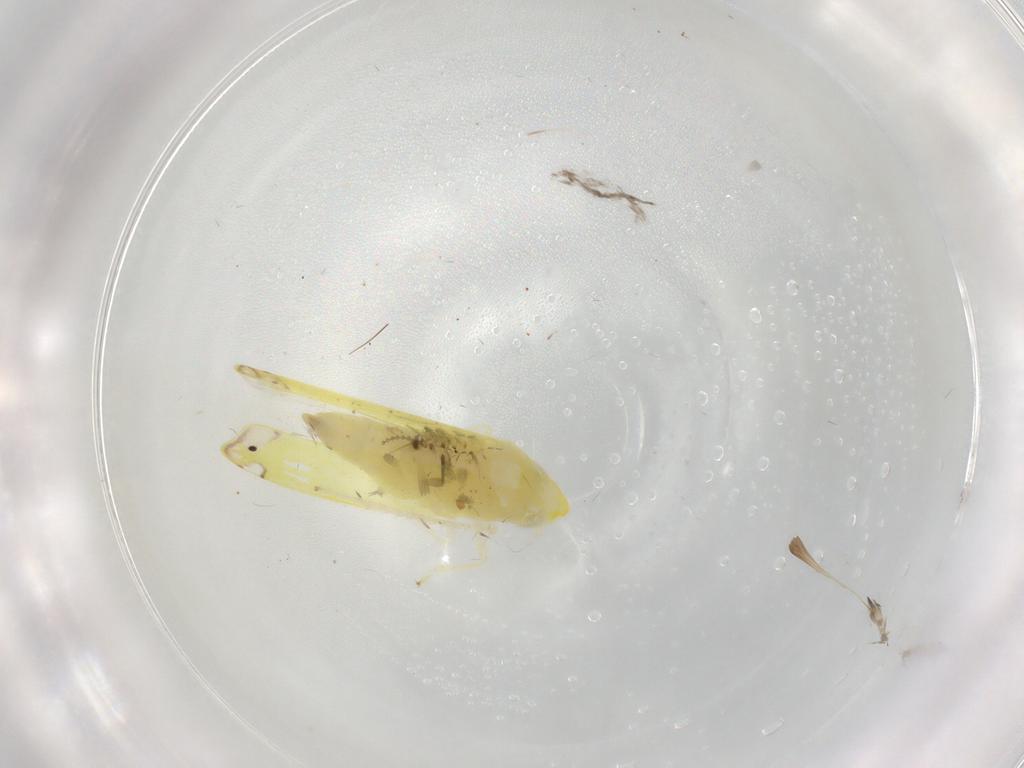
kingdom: Animalia
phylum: Arthropoda
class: Insecta
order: Hemiptera
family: Cicadellidae
